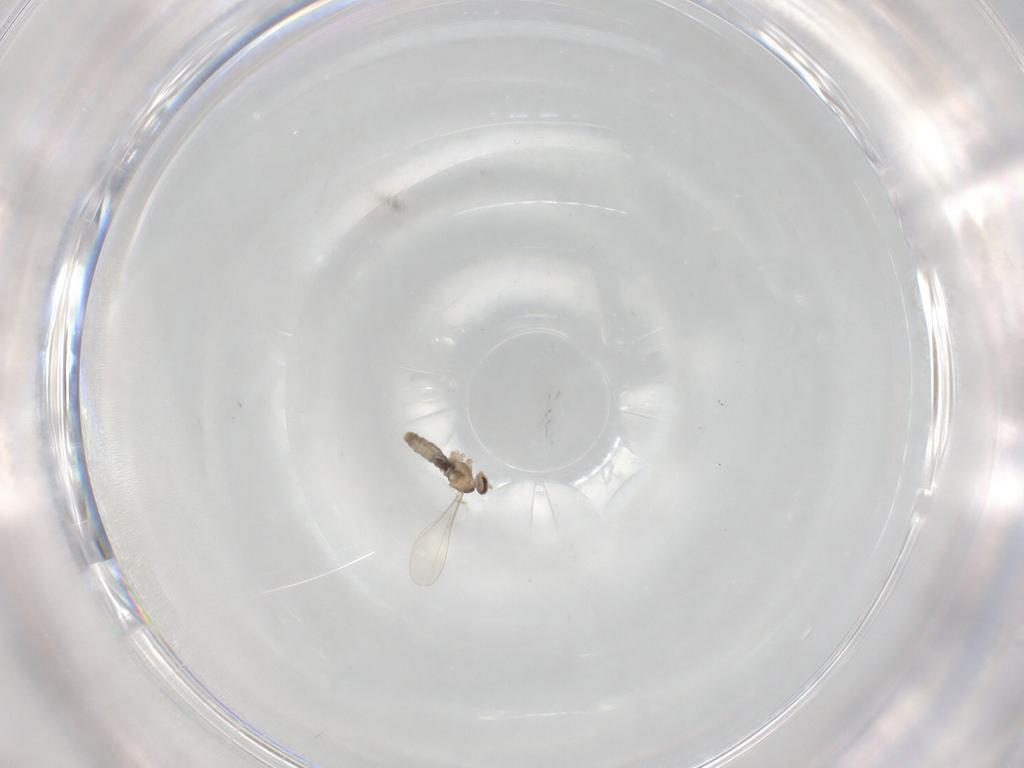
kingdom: Animalia
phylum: Arthropoda
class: Insecta
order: Diptera
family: Cecidomyiidae
